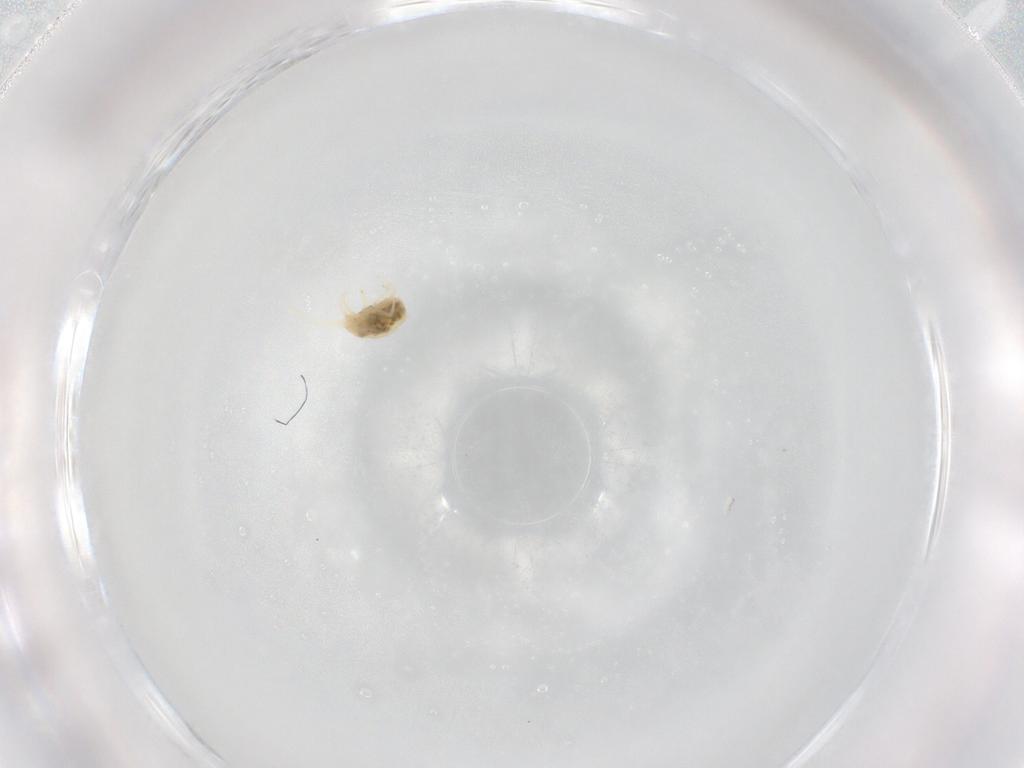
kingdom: Animalia
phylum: Arthropoda
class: Arachnida
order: Trombidiformes
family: Tetranychidae
